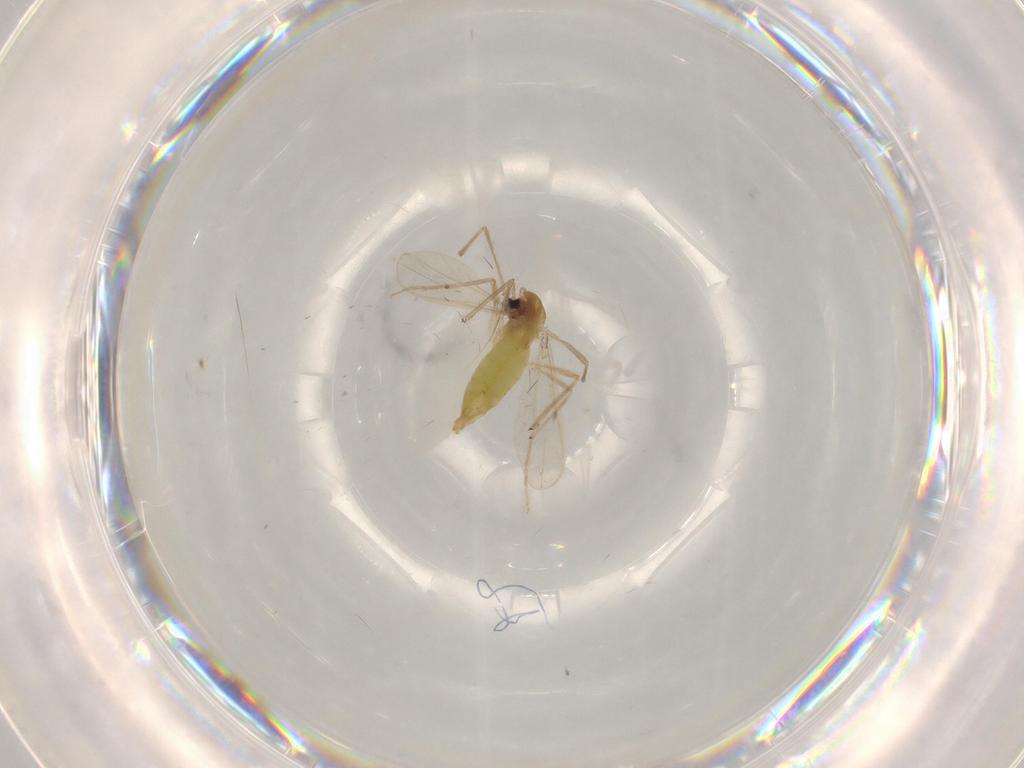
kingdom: Animalia
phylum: Arthropoda
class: Insecta
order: Diptera
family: Chironomidae
